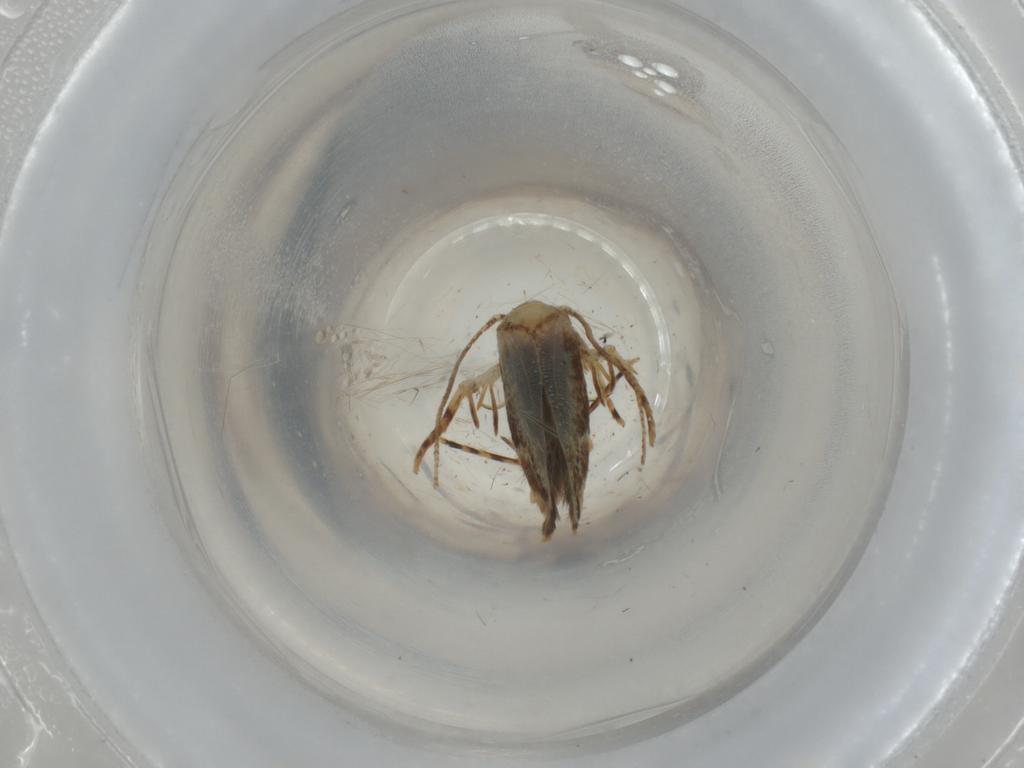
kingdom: Animalia
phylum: Arthropoda
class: Insecta
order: Lepidoptera
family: Cosmopterigidae
